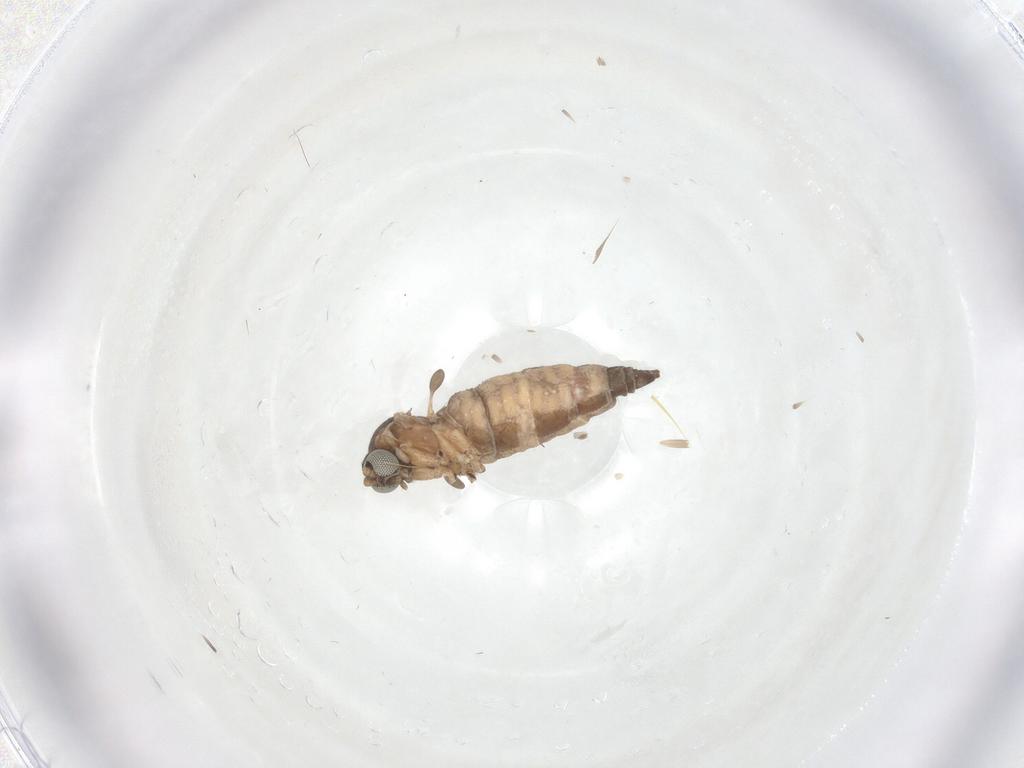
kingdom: Animalia
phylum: Arthropoda
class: Insecta
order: Diptera
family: Sciaridae
